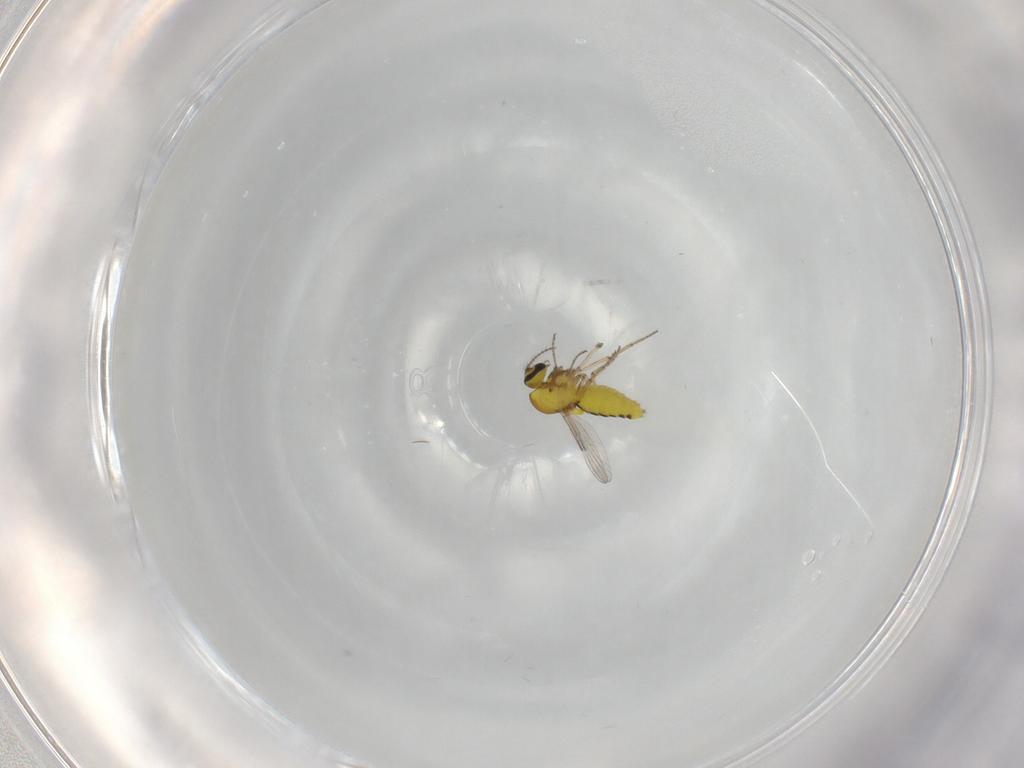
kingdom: Animalia
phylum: Arthropoda
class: Insecta
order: Diptera
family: Ceratopogonidae
